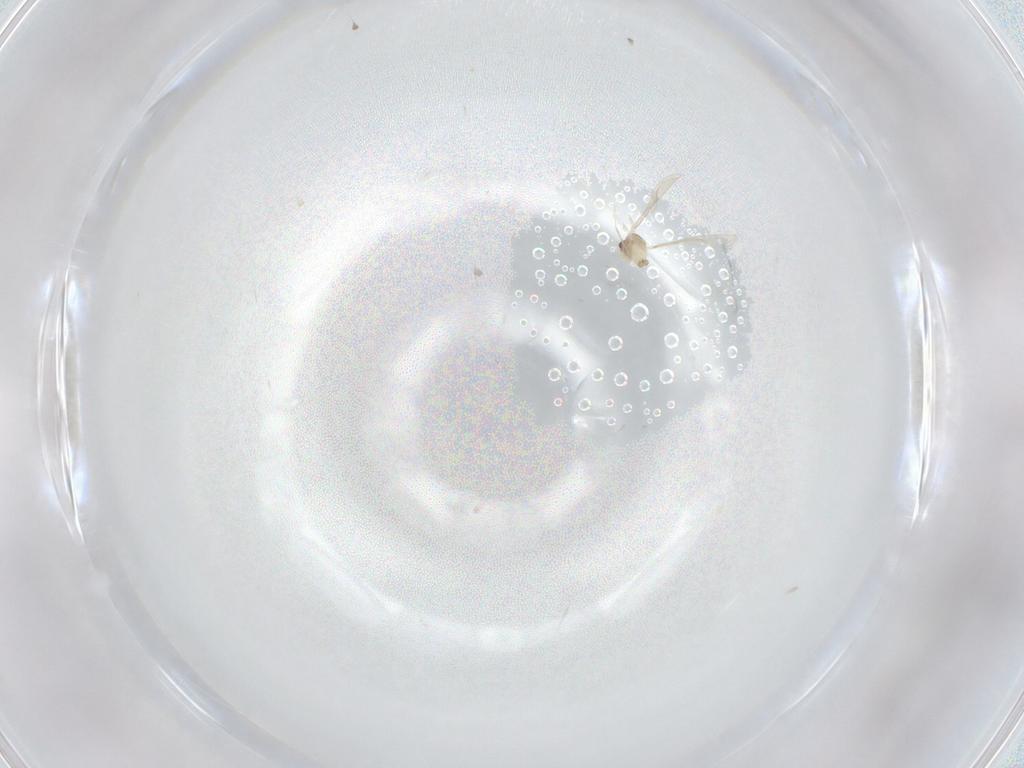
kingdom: Animalia
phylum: Arthropoda
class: Insecta
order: Diptera
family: Cecidomyiidae
